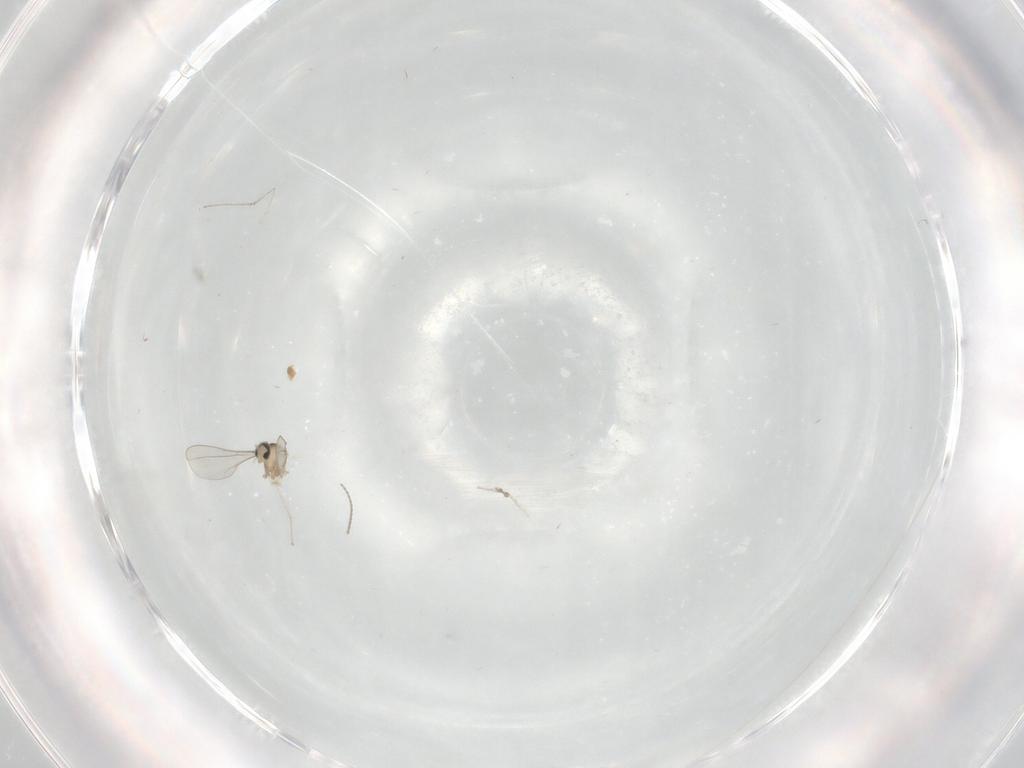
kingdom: Animalia
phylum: Arthropoda
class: Insecta
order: Diptera
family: Cecidomyiidae
